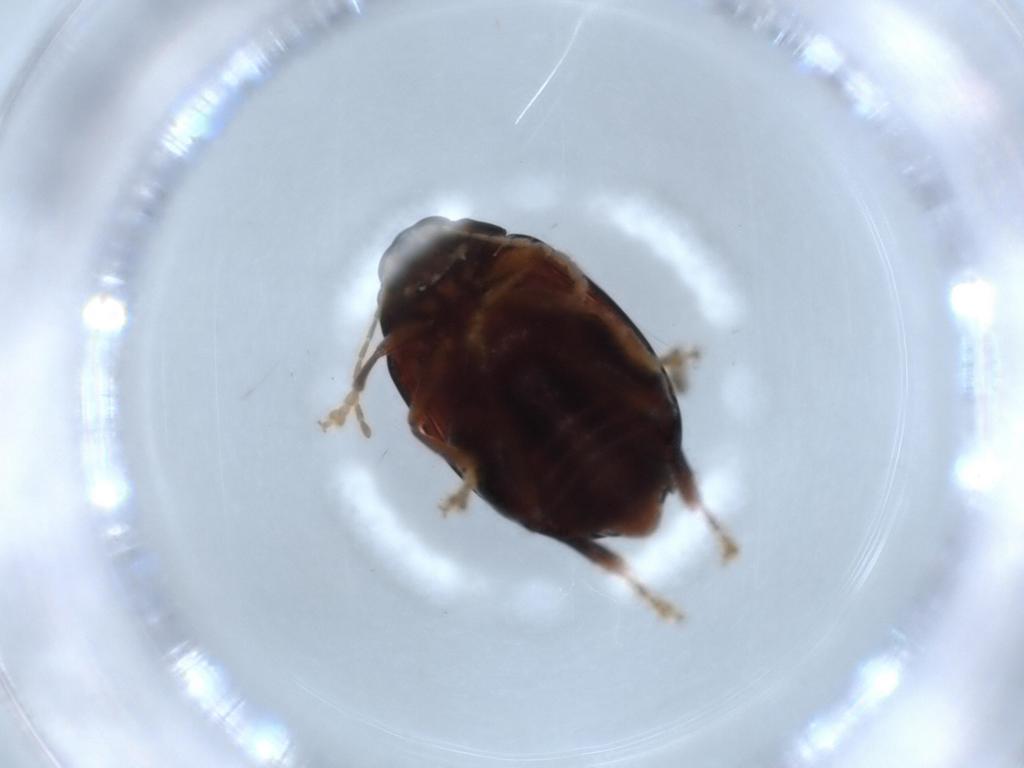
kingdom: Animalia
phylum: Arthropoda
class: Insecta
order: Coleoptera
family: Chrysomelidae
